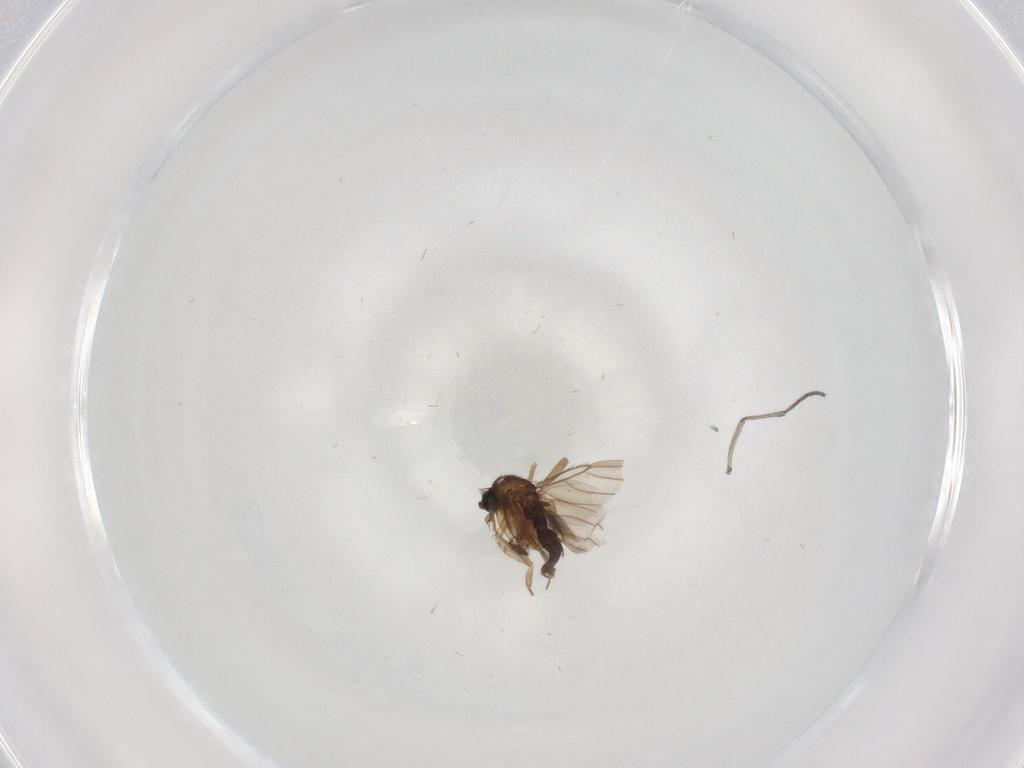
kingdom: Animalia
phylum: Arthropoda
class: Insecta
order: Diptera
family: Phoridae
